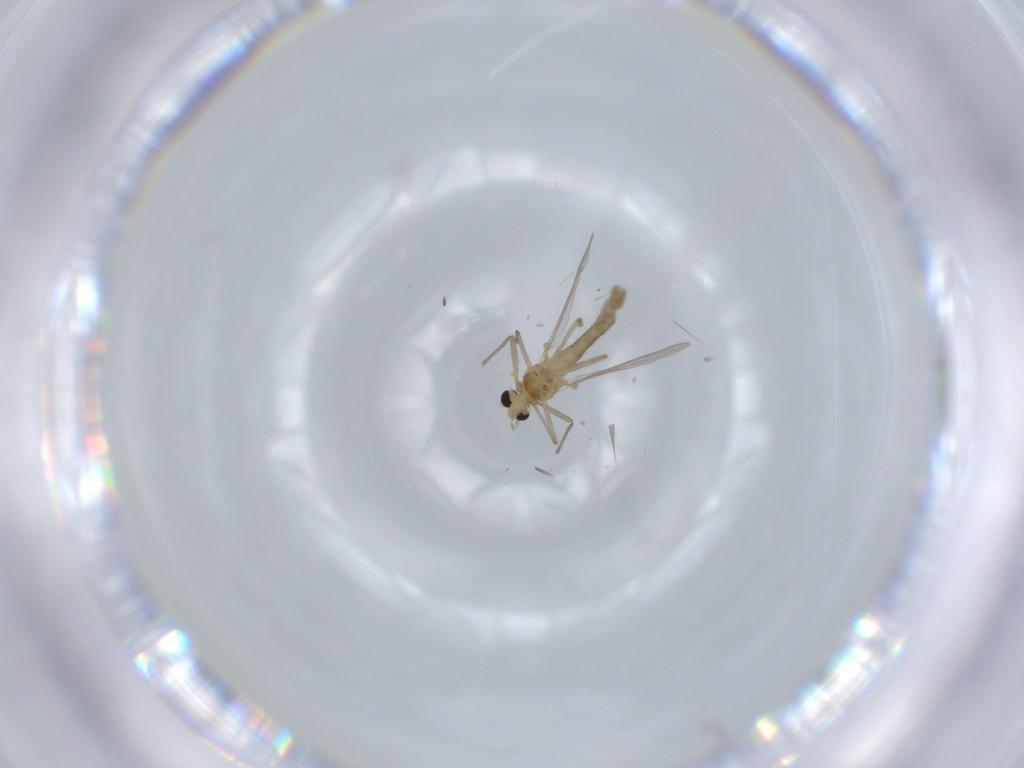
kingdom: Animalia
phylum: Arthropoda
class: Insecta
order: Diptera
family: Chironomidae
